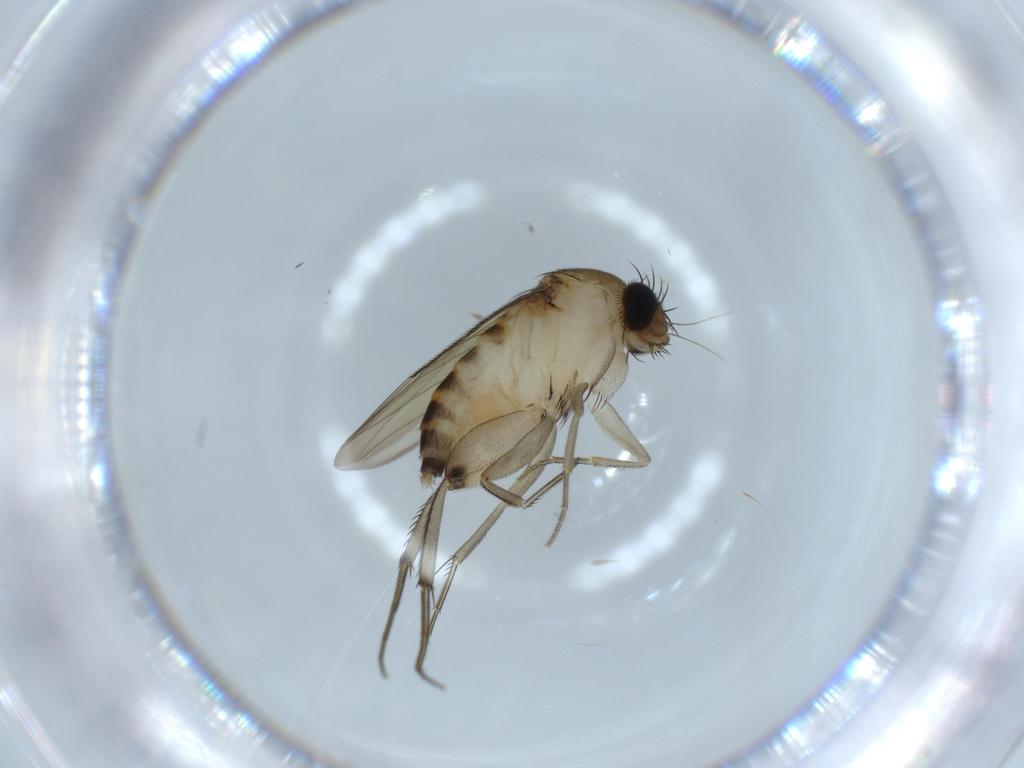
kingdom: Animalia
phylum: Arthropoda
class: Insecta
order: Diptera
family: Phoridae
